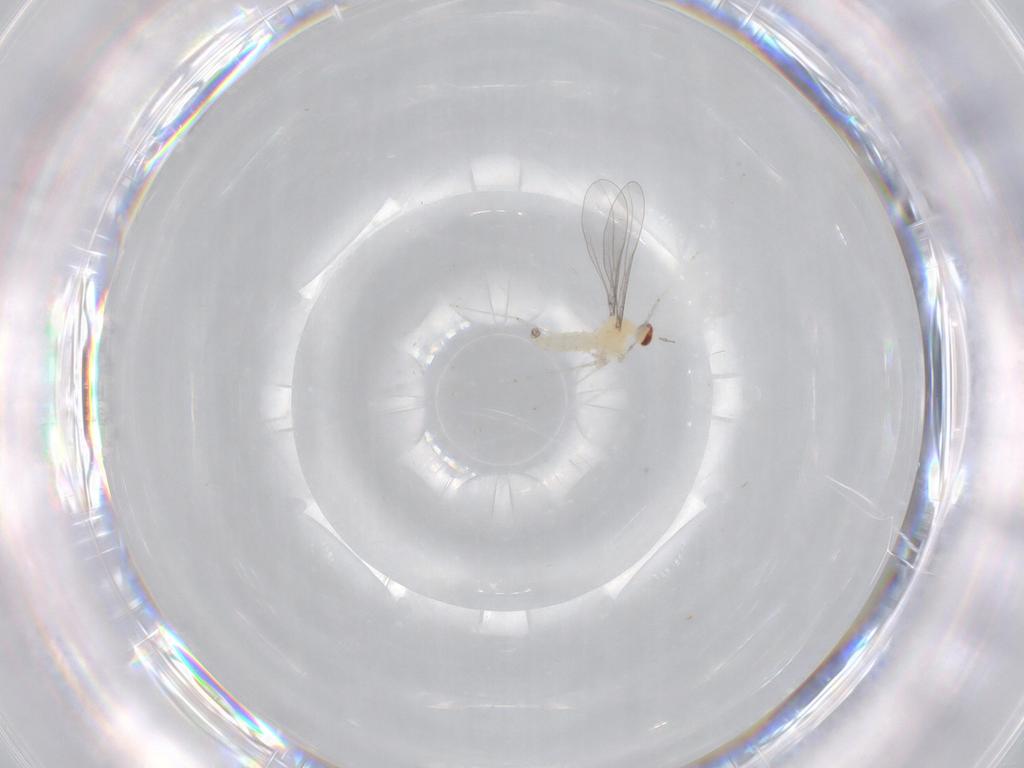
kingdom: Animalia
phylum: Arthropoda
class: Insecta
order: Diptera
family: Cecidomyiidae
